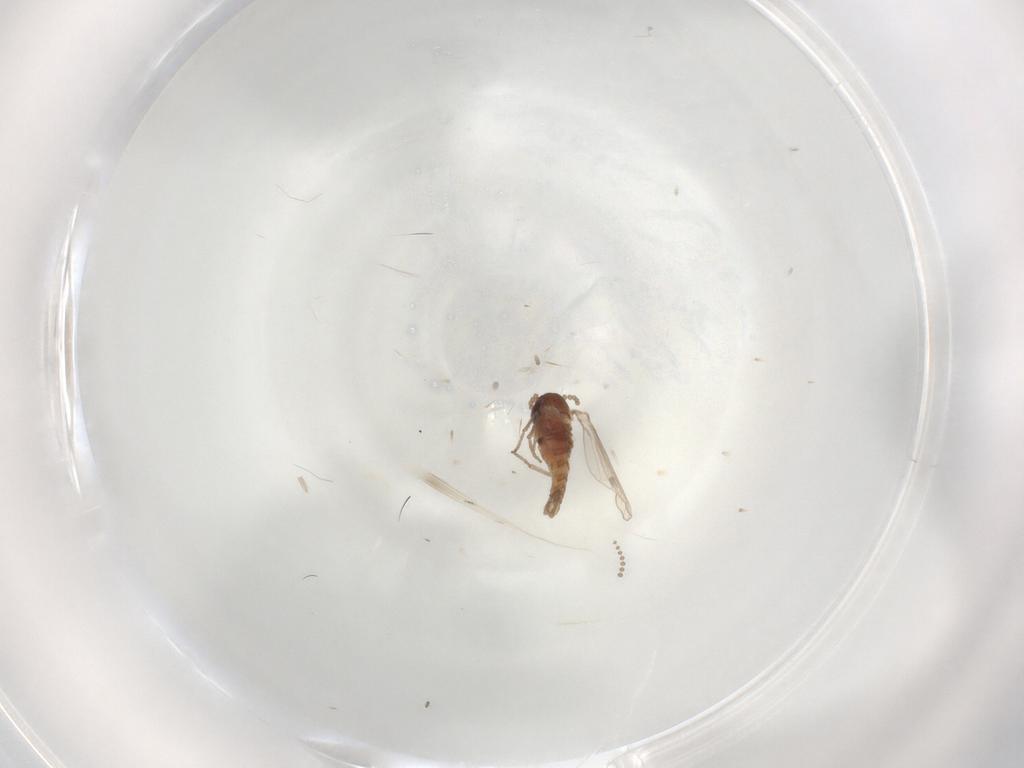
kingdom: Animalia
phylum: Arthropoda
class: Insecta
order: Diptera
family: Psychodidae
